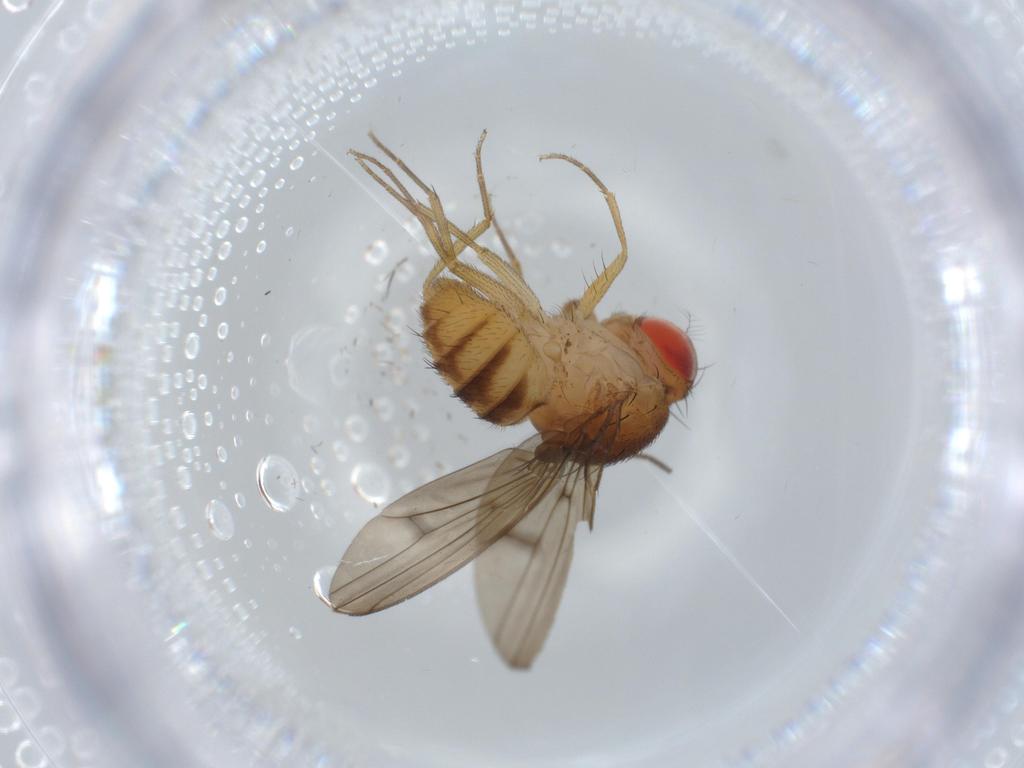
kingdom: Animalia
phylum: Arthropoda
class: Insecta
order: Diptera
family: Drosophilidae
